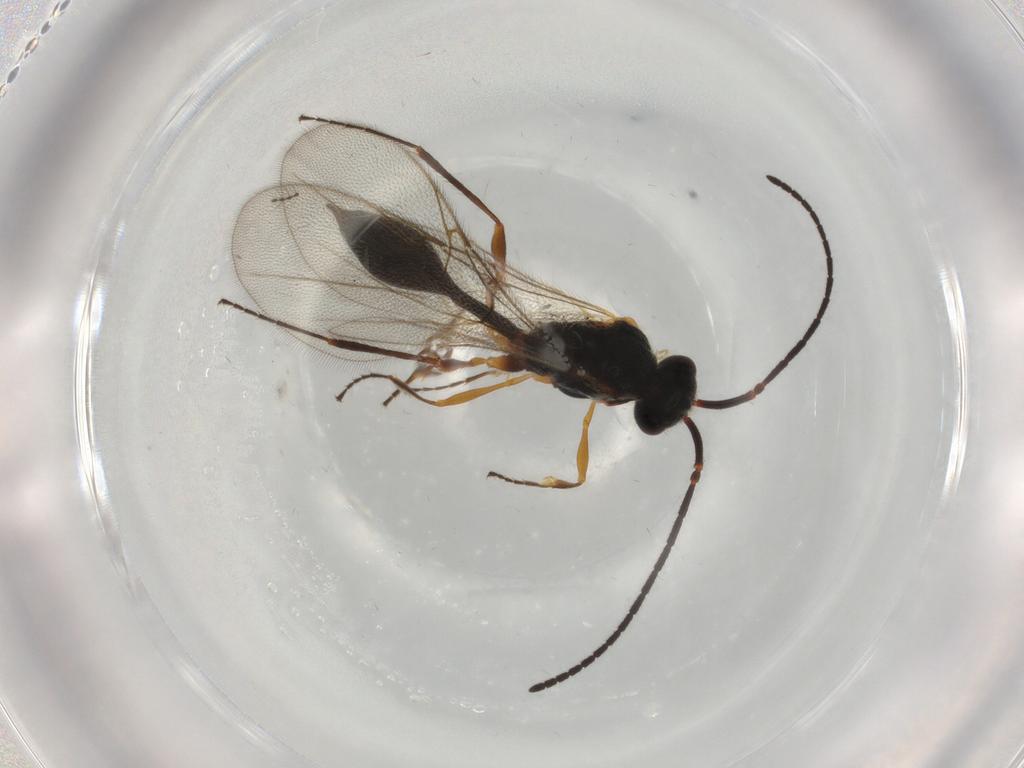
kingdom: Animalia
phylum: Arthropoda
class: Insecta
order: Hymenoptera
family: Diapriidae
